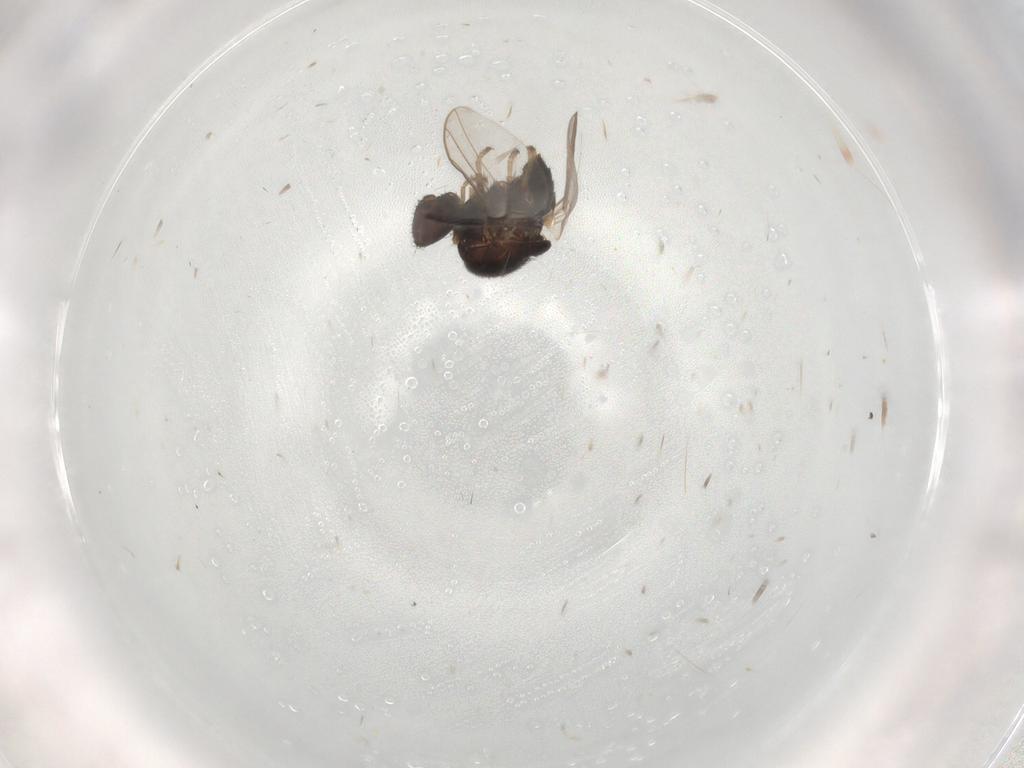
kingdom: Animalia
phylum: Arthropoda
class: Insecta
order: Diptera
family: Chloropidae
